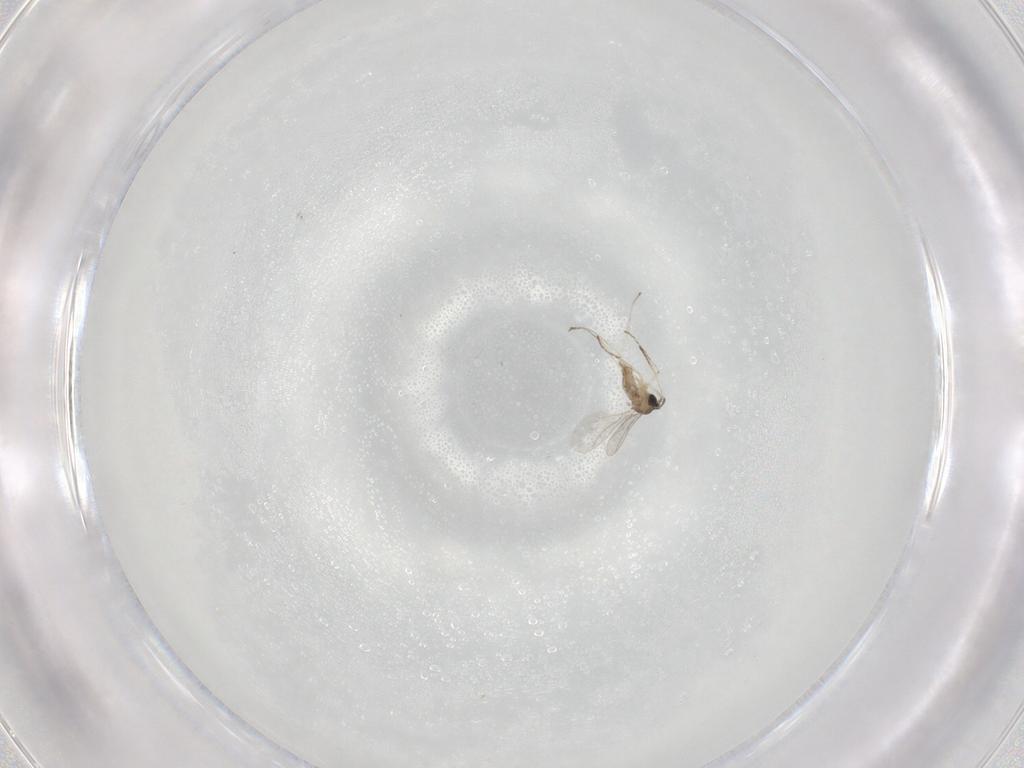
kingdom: Animalia
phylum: Arthropoda
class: Insecta
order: Diptera
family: Cecidomyiidae
